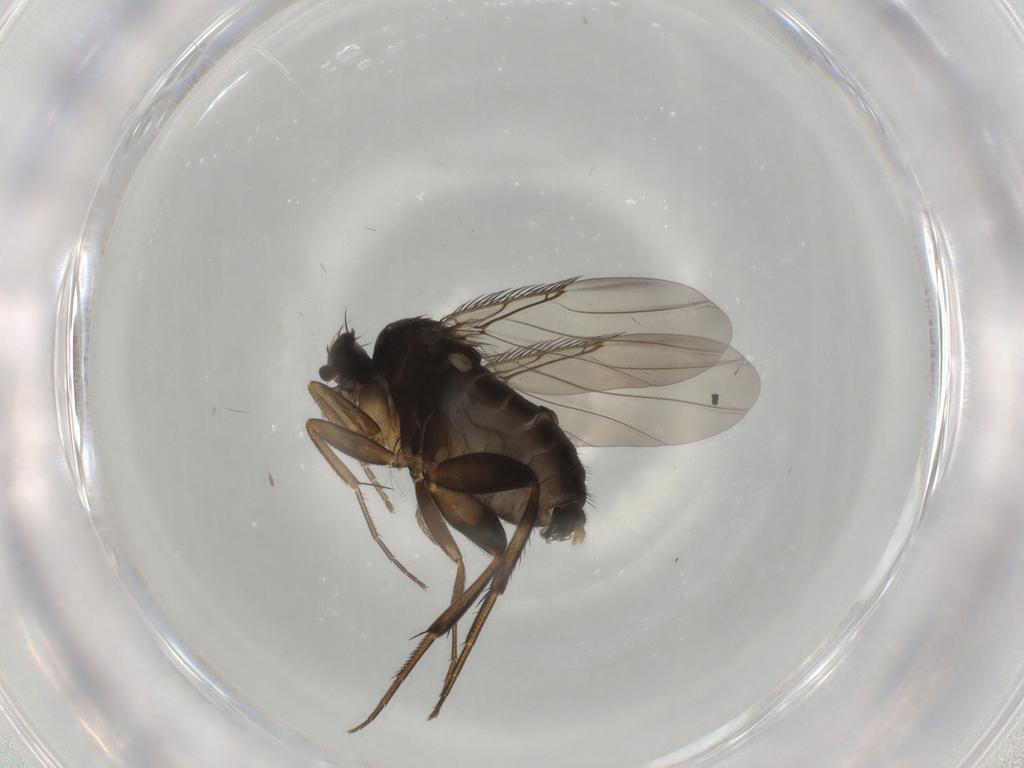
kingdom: Animalia
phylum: Arthropoda
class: Insecta
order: Diptera
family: Phoridae
